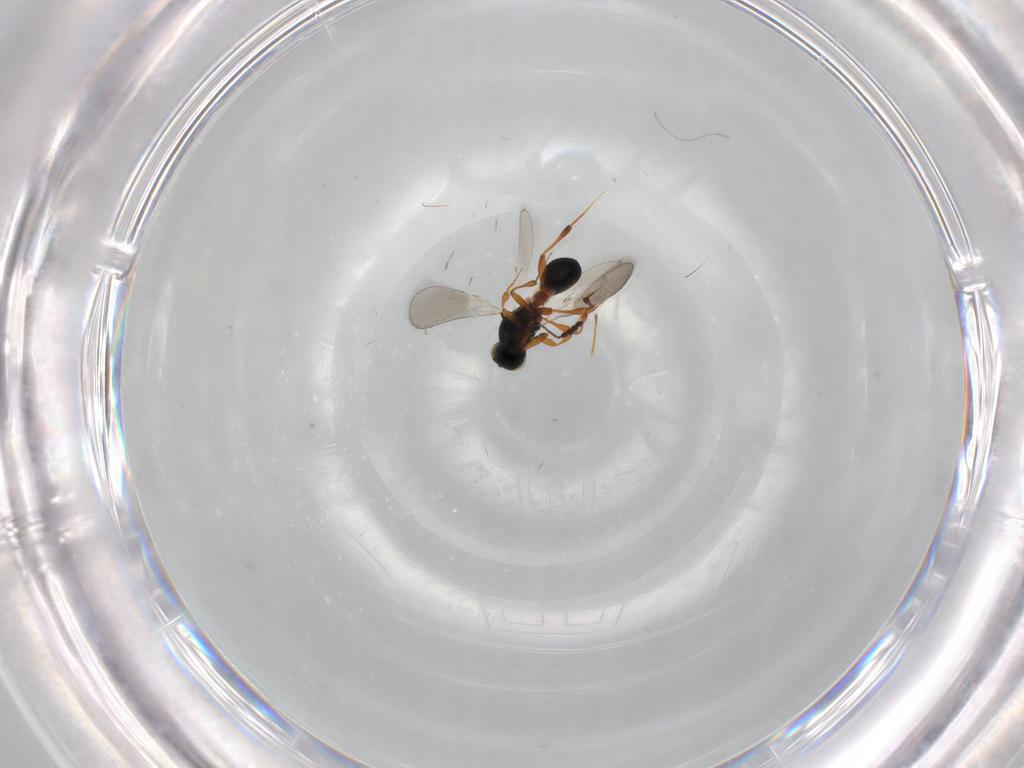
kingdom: Animalia
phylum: Arthropoda
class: Insecta
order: Hymenoptera
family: Platygastridae
